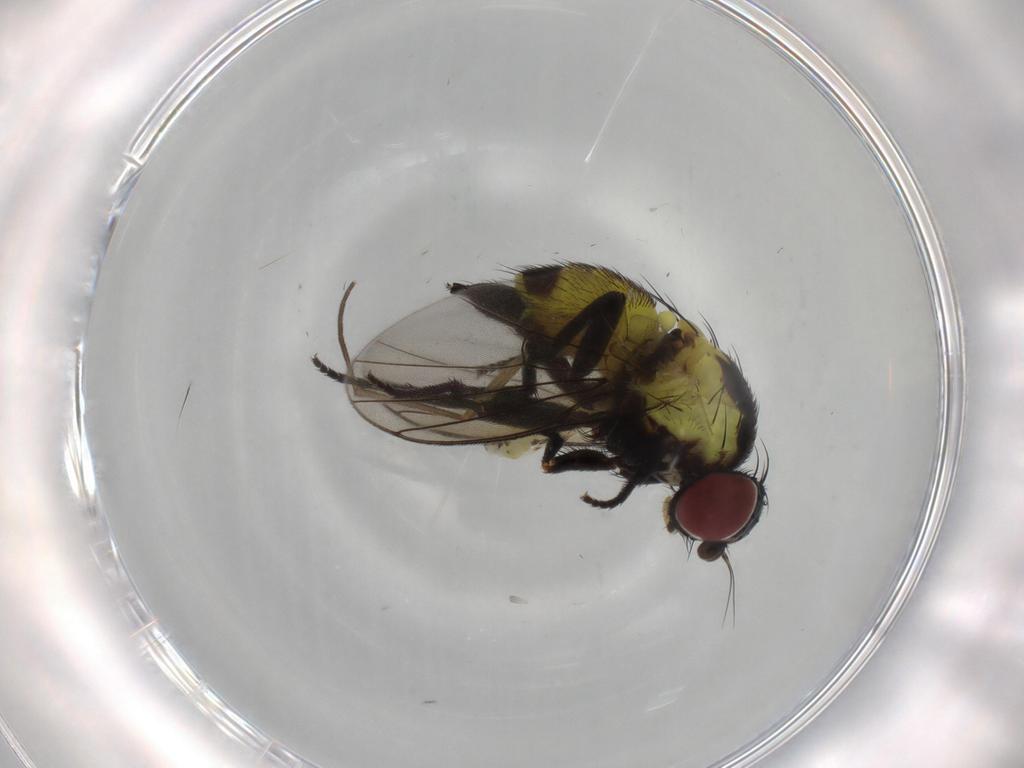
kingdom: Animalia
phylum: Arthropoda
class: Insecta
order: Diptera
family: Agromyzidae
